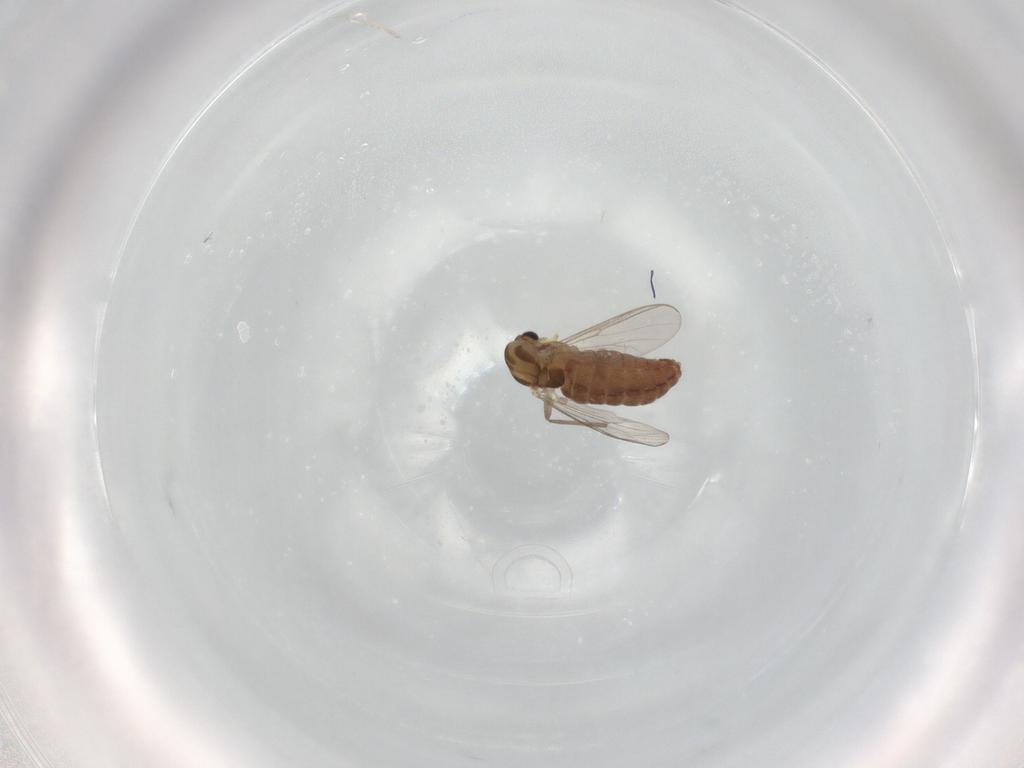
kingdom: Animalia
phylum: Arthropoda
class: Insecta
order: Diptera
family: Chironomidae
